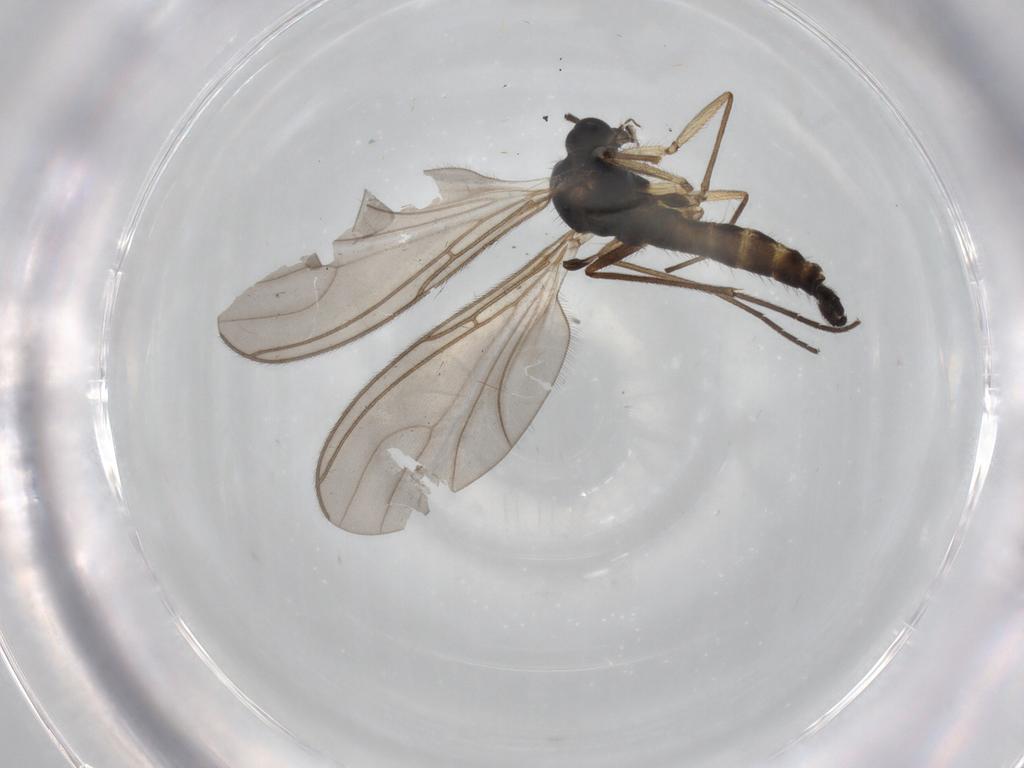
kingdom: Animalia
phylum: Arthropoda
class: Insecta
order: Diptera
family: Sciaridae
